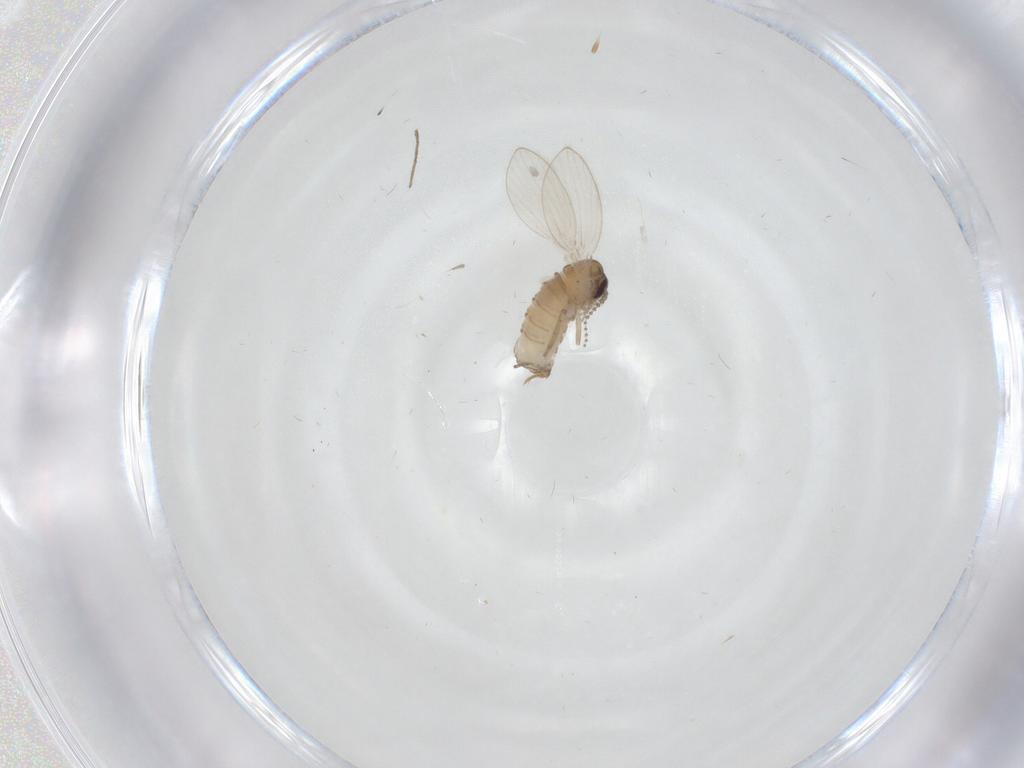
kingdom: Animalia
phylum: Arthropoda
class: Insecta
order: Diptera
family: Psychodidae
